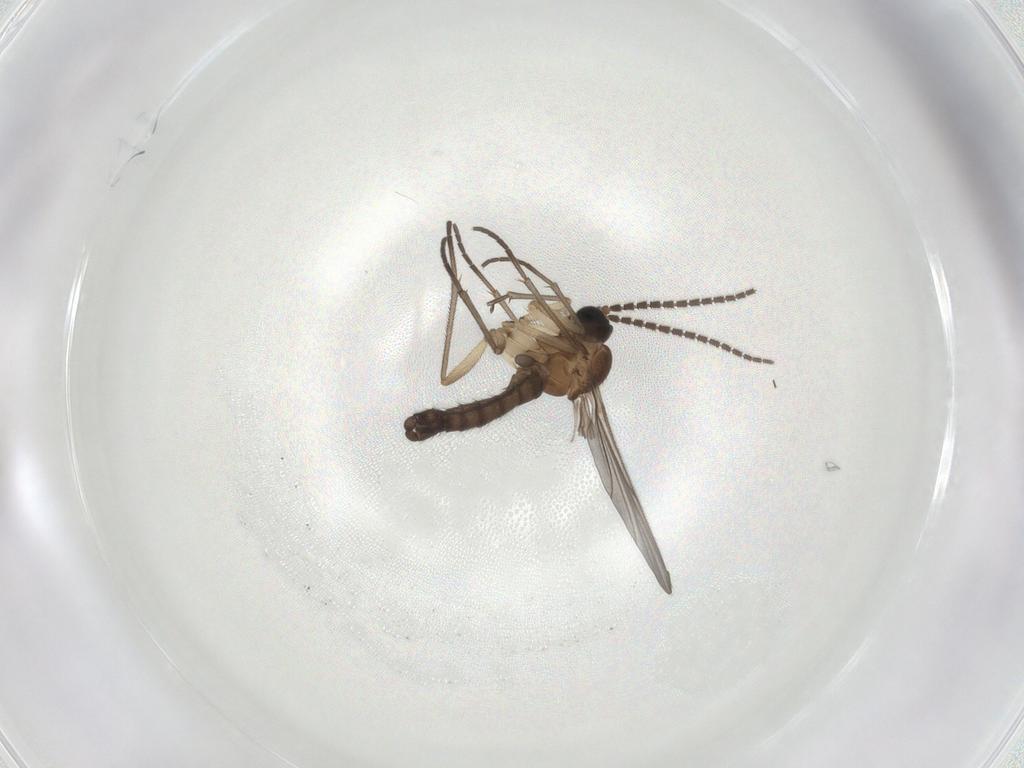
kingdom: Animalia
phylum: Arthropoda
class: Insecta
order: Diptera
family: Sciaridae
